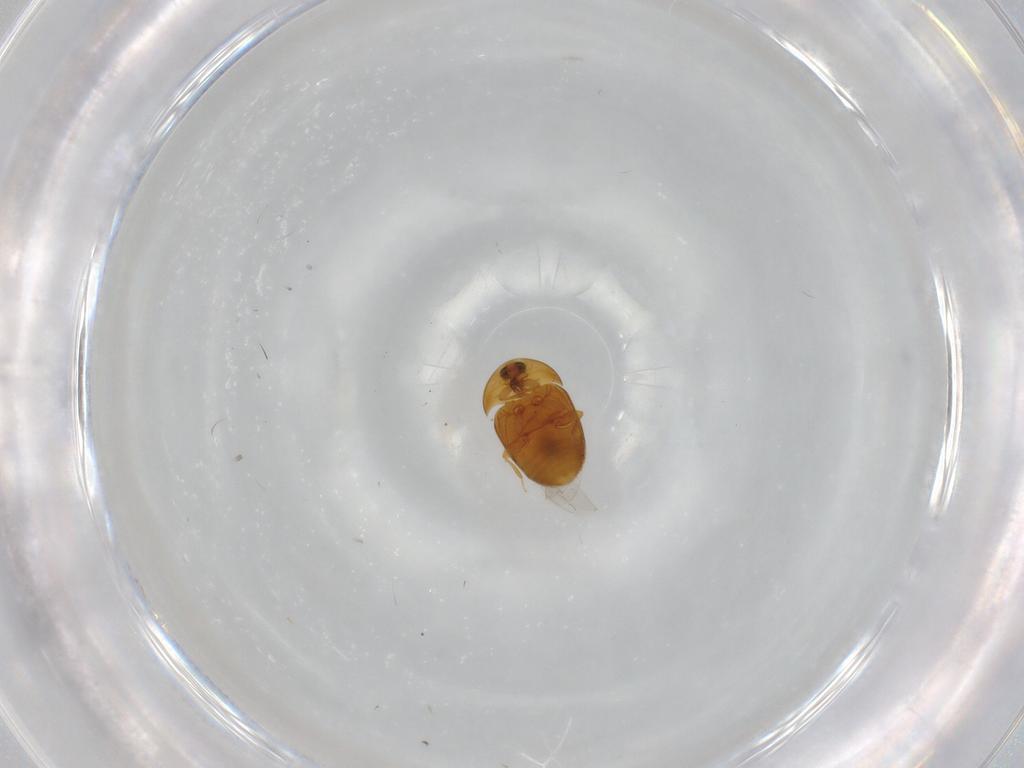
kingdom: Animalia
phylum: Arthropoda
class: Insecta
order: Coleoptera
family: Corylophidae
